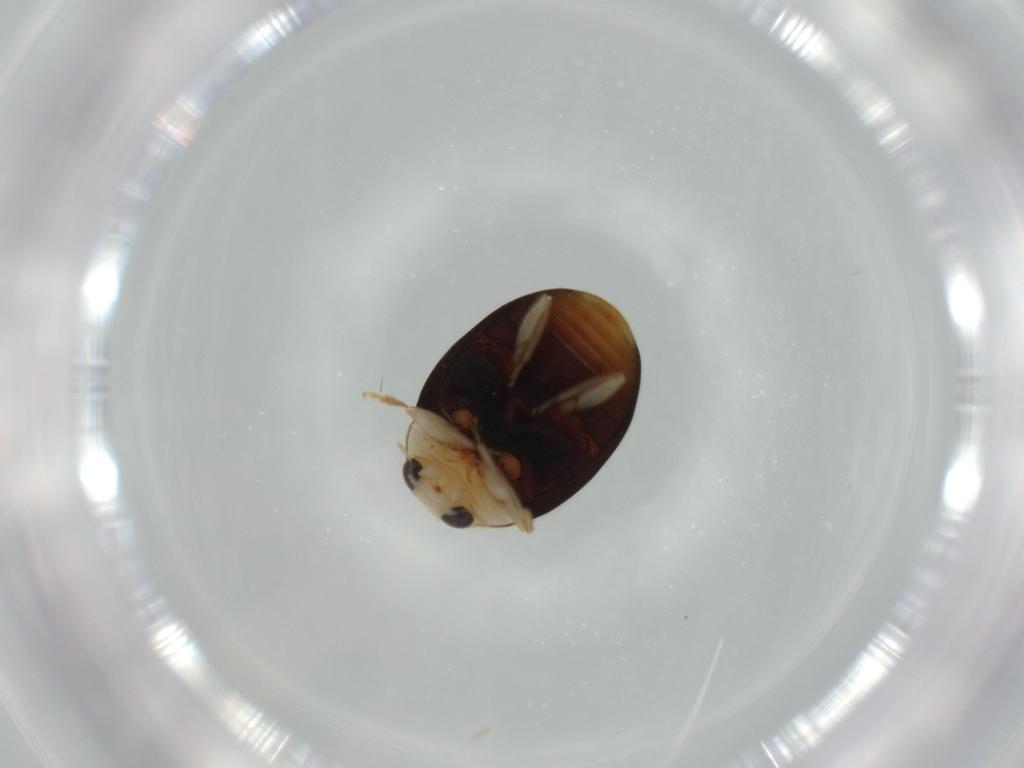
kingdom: Animalia
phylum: Arthropoda
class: Insecta
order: Coleoptera
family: Coccinellidae
